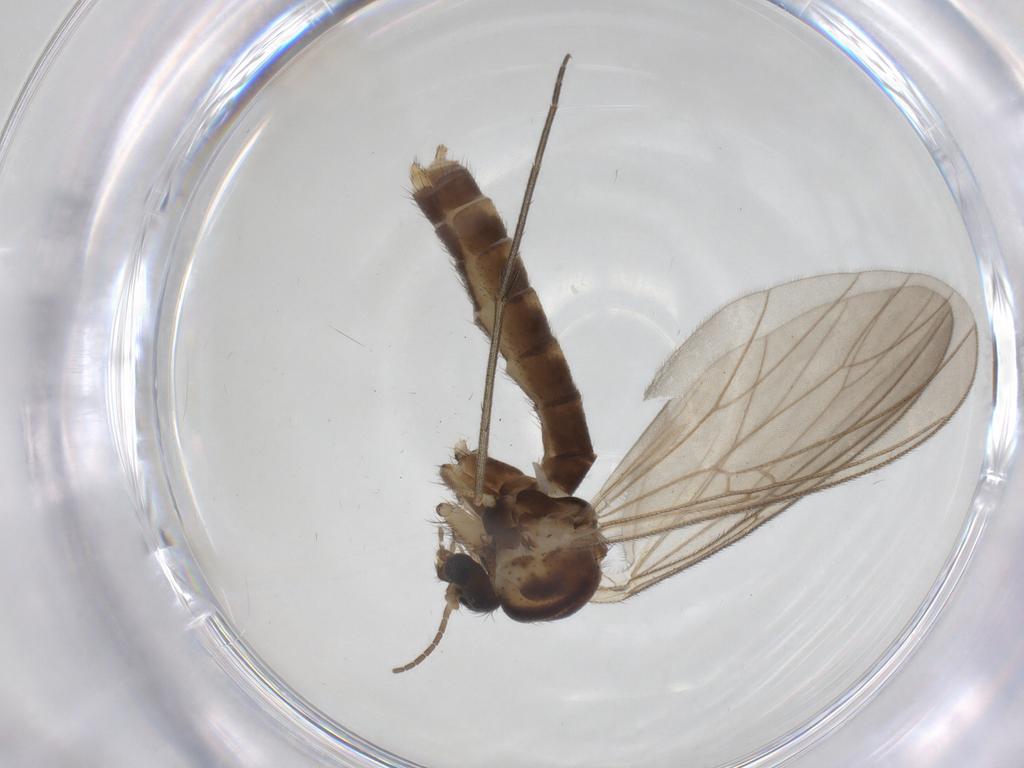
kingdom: Animalia
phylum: Arthropoda
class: Insecta
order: Diptera
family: Mycetophilidae
